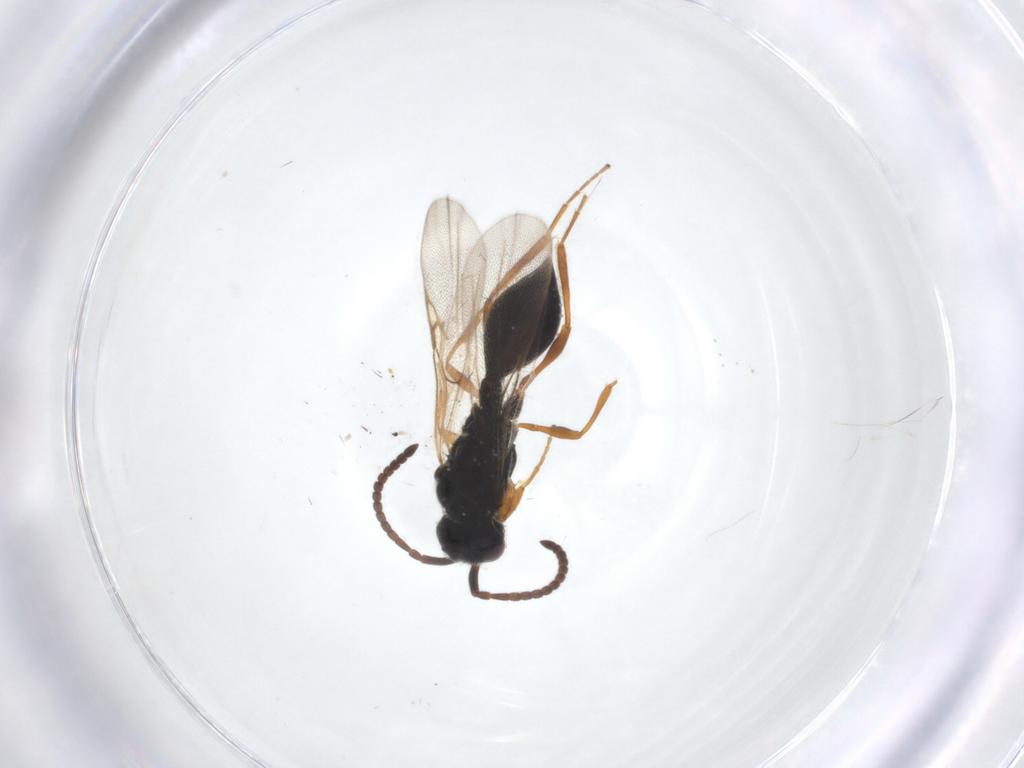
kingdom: Animalia
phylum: Arthropoda
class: Insecta
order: Hymenoptera
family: Diapriidae
